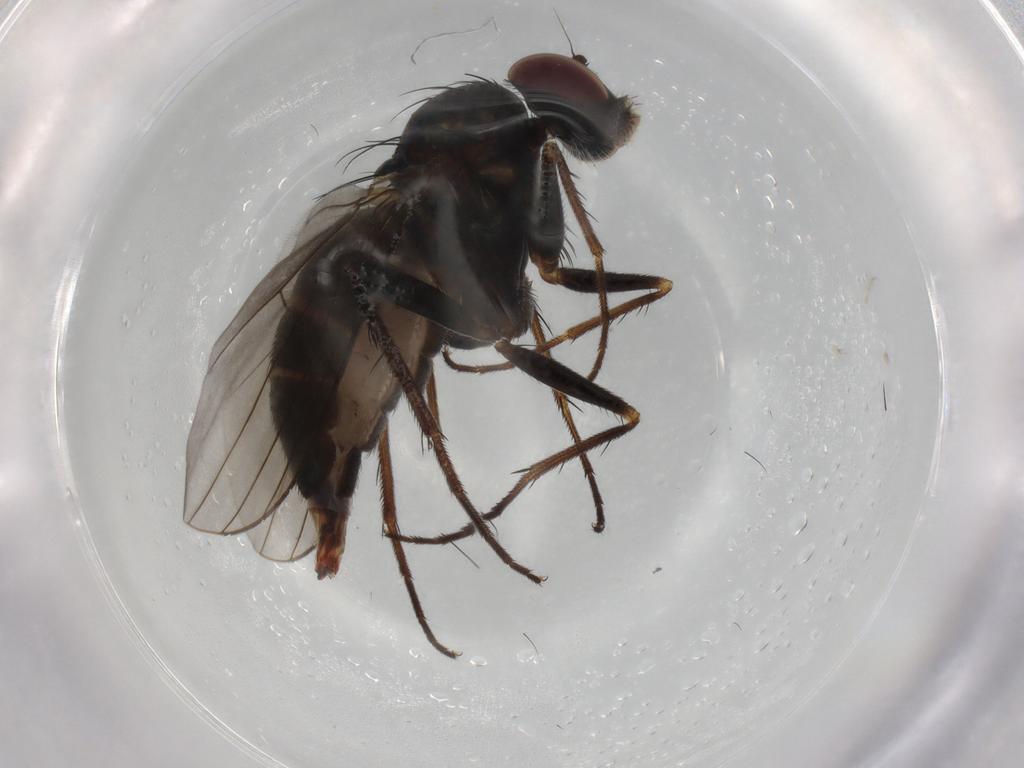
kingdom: Animalia
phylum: Arthropoda
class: Insecta
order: Diptera
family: Dolichopodidae
